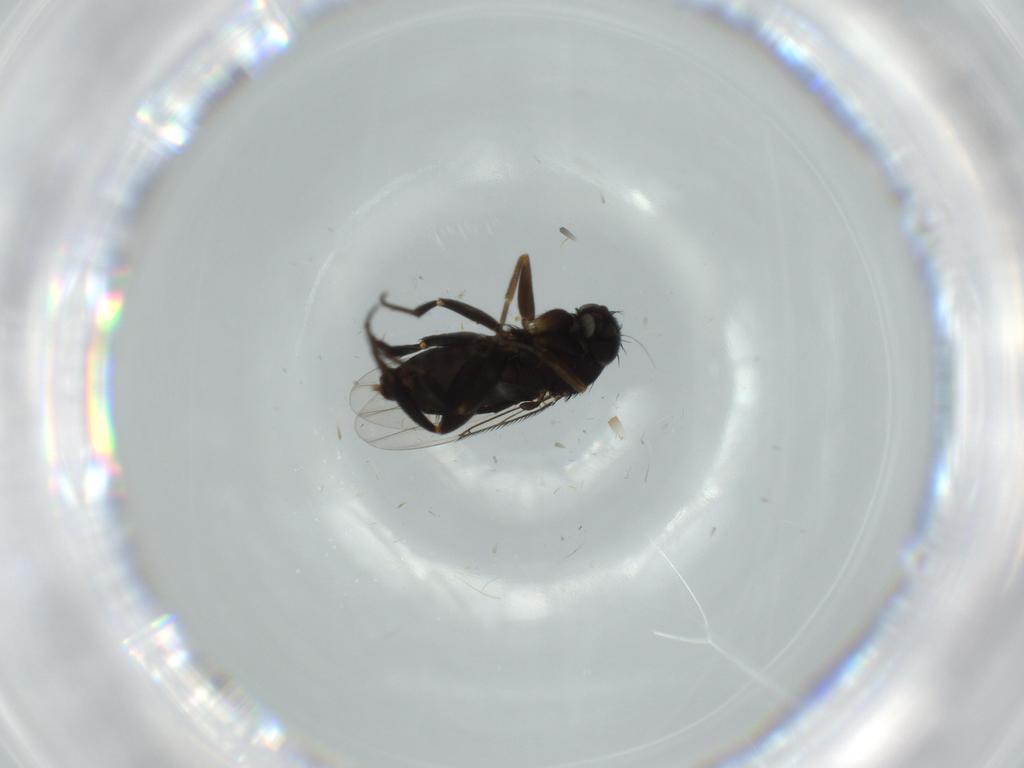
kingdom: Animalia
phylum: Arthropoda
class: Insecta
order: Diptera
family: Phoridae
